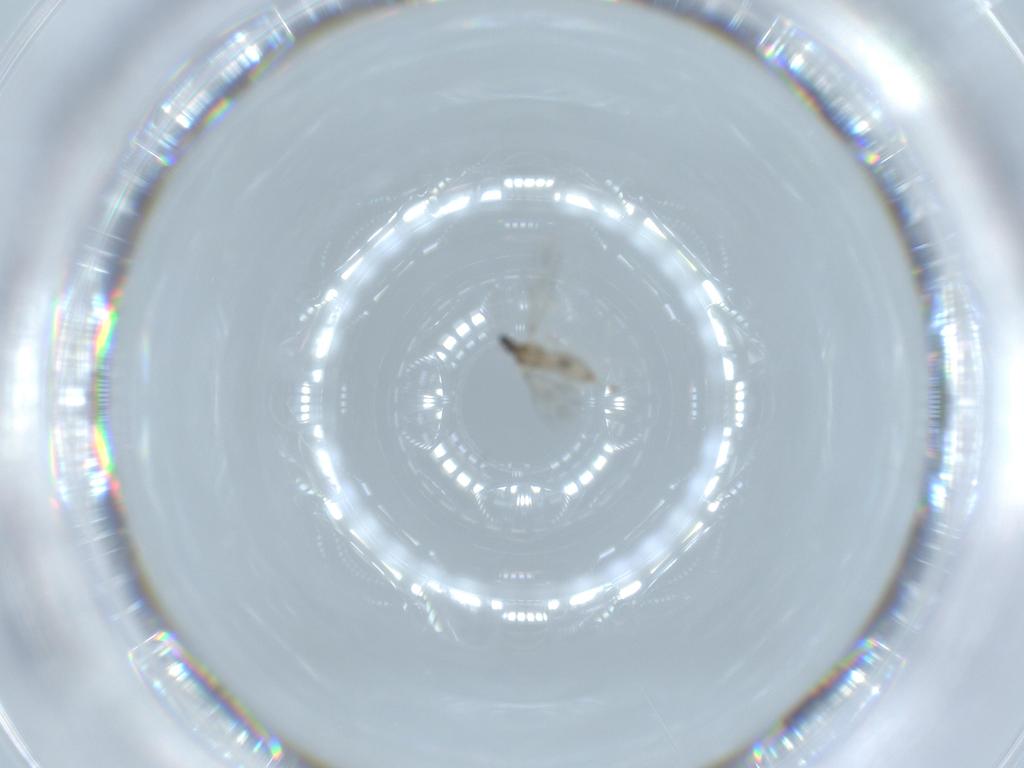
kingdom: Animalia
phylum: Arthropoda
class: Insecta
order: Diptera
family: Cecidomyiidae
